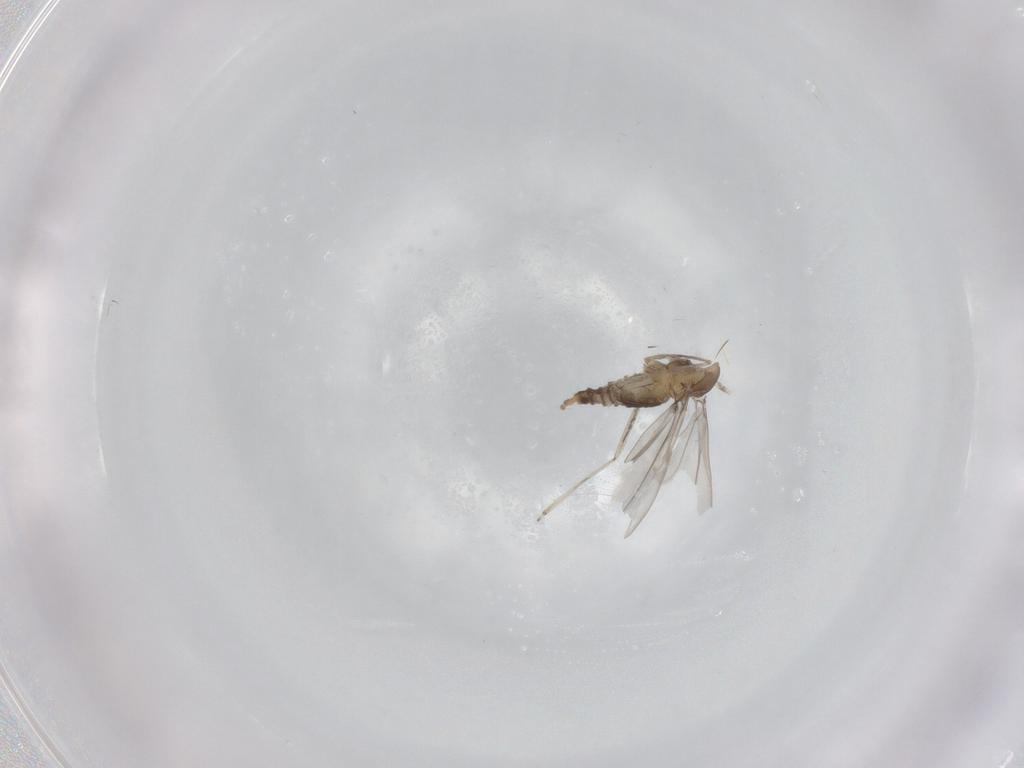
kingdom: Animalia
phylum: Arthropoda
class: Insecta
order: Diptera
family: Cecidomyiidae
